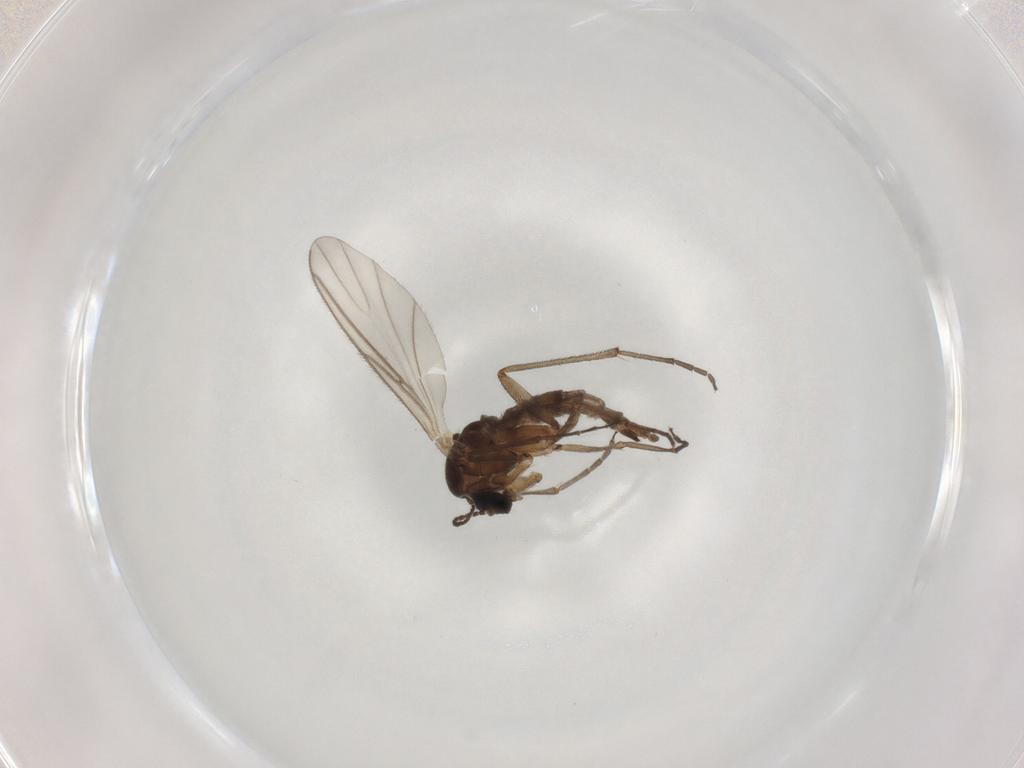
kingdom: Animalia
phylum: Arthropoda
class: Insecta
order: Diptera
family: Sciaridae
